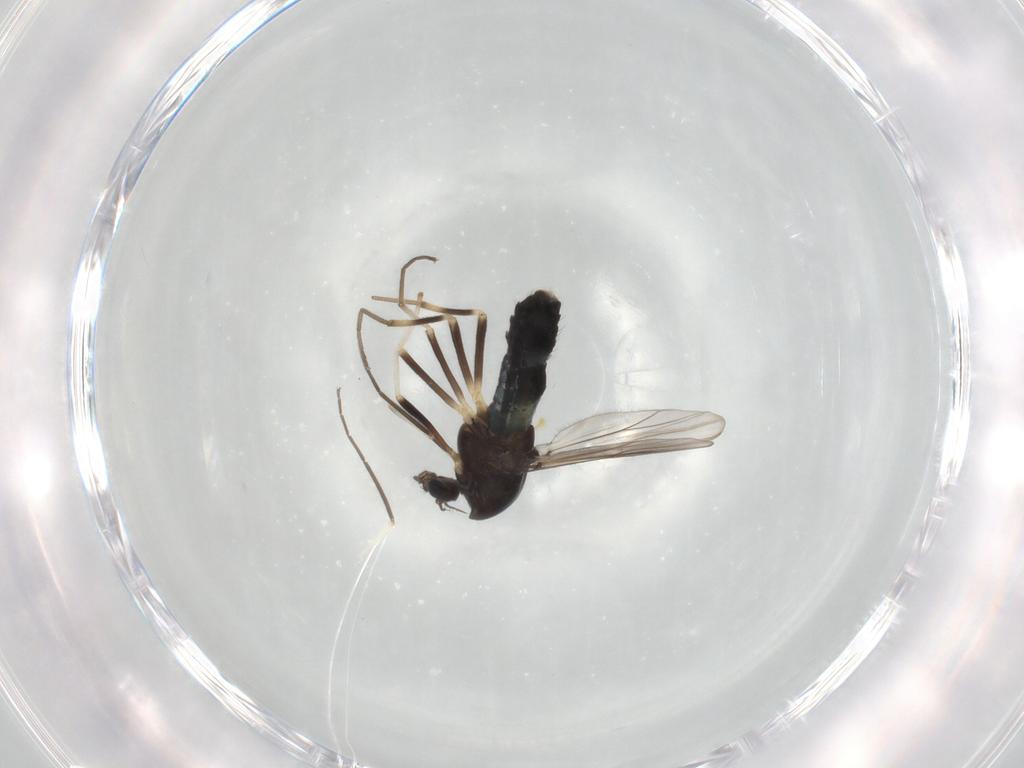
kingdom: Animalia
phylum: Arthropoda
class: Insecta
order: Diptera
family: Chironomidae
